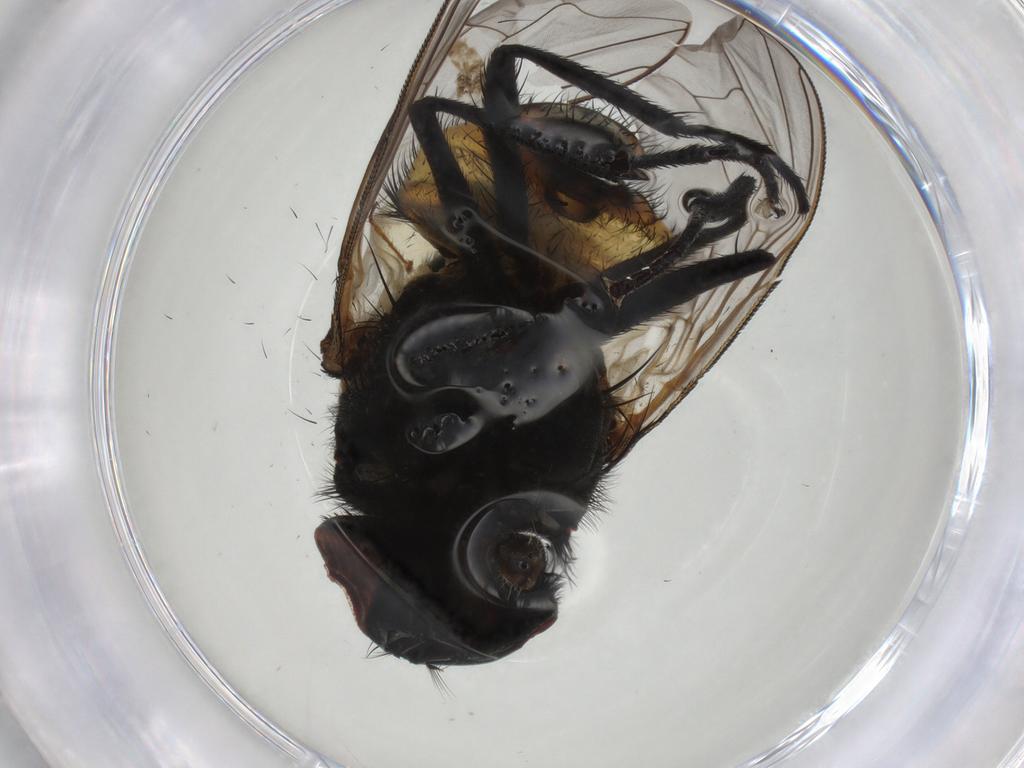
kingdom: Animalia
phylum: Arthropoda
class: Insecta
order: Diptera
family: Muscidae
